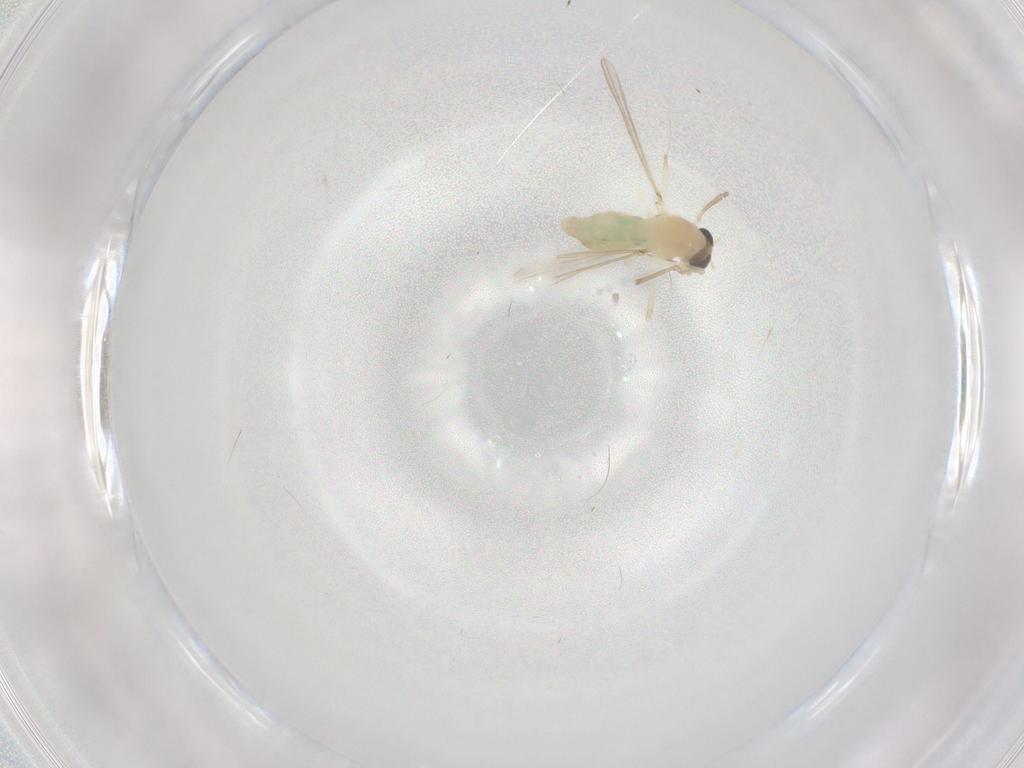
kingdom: Animalia
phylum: Arthropoda
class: Insecta
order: Diptera
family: Chironomidae
